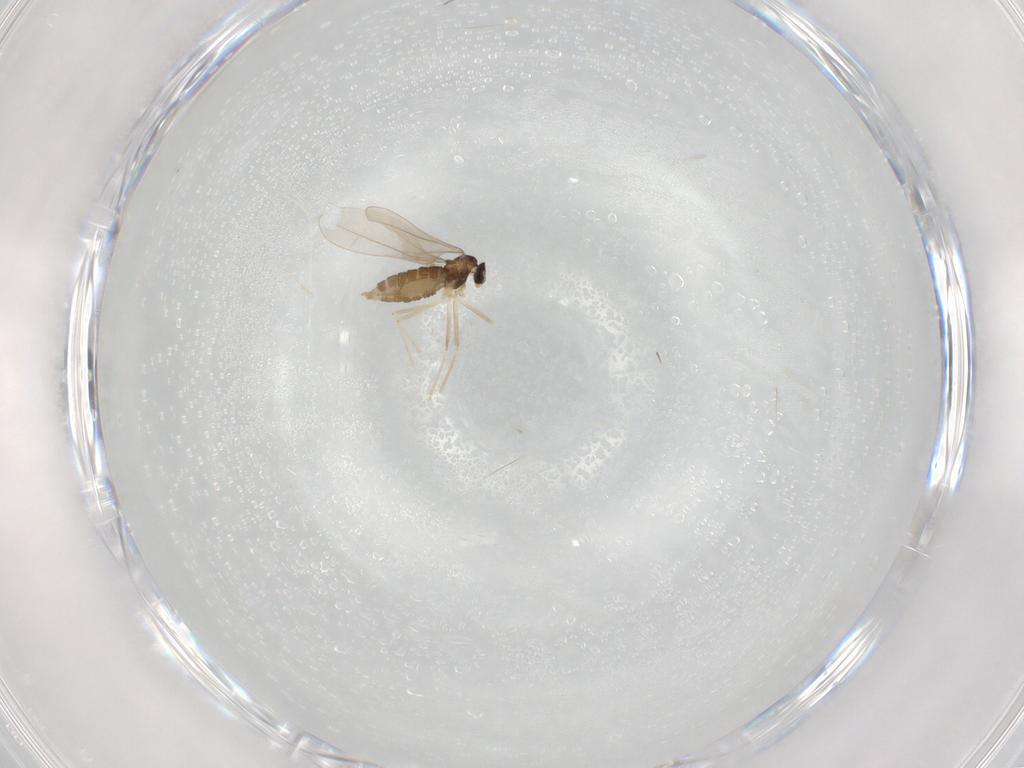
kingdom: Animalia
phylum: Arthropoda
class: Insecta
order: Diptera
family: Cecidomyiidae
